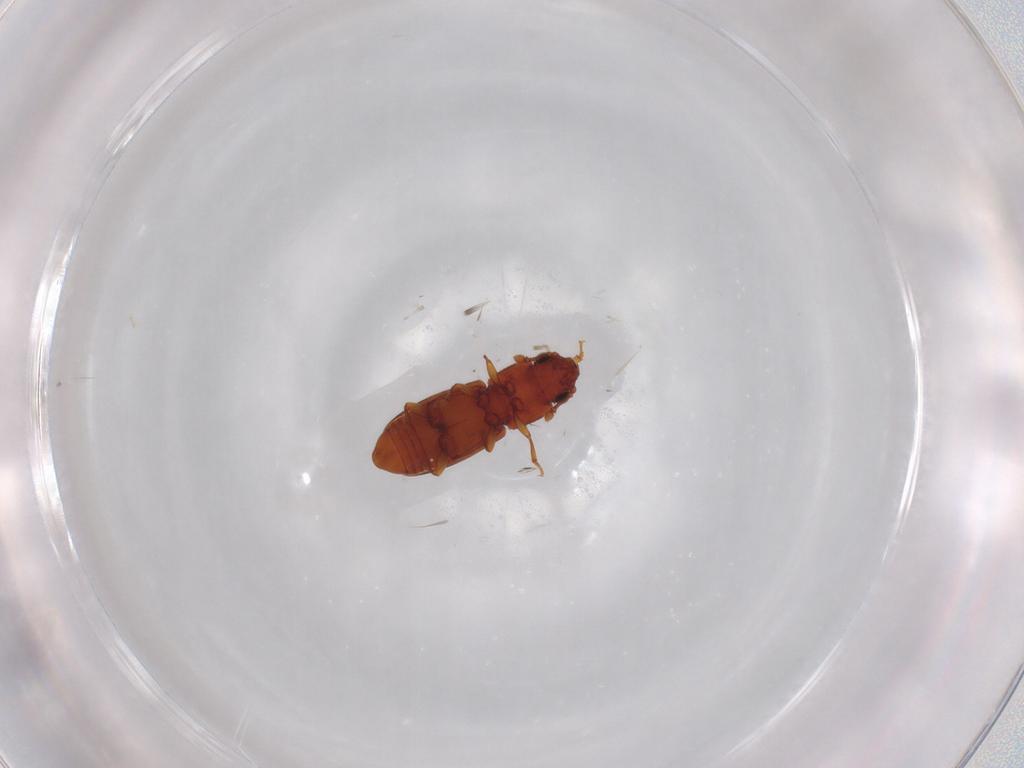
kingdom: Animalia
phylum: Arthropoda
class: Insecta
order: Coleoptera
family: Monotomidae
